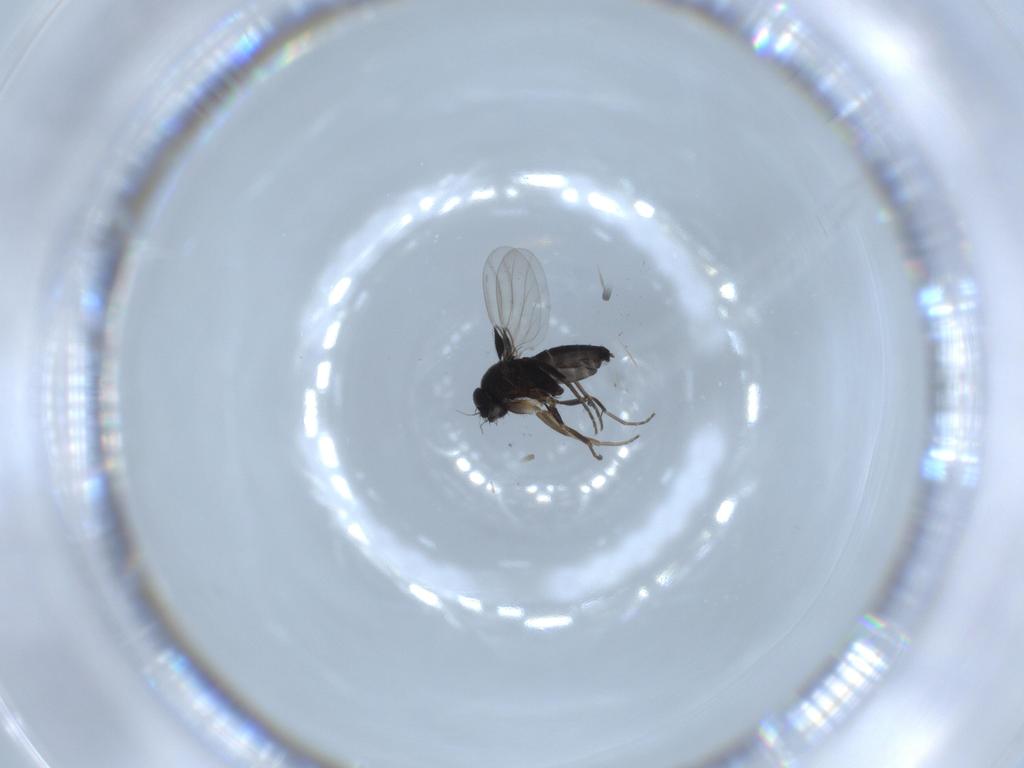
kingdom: Animalia
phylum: Arthropoda
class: Insecta
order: Diptera
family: Phoridae
